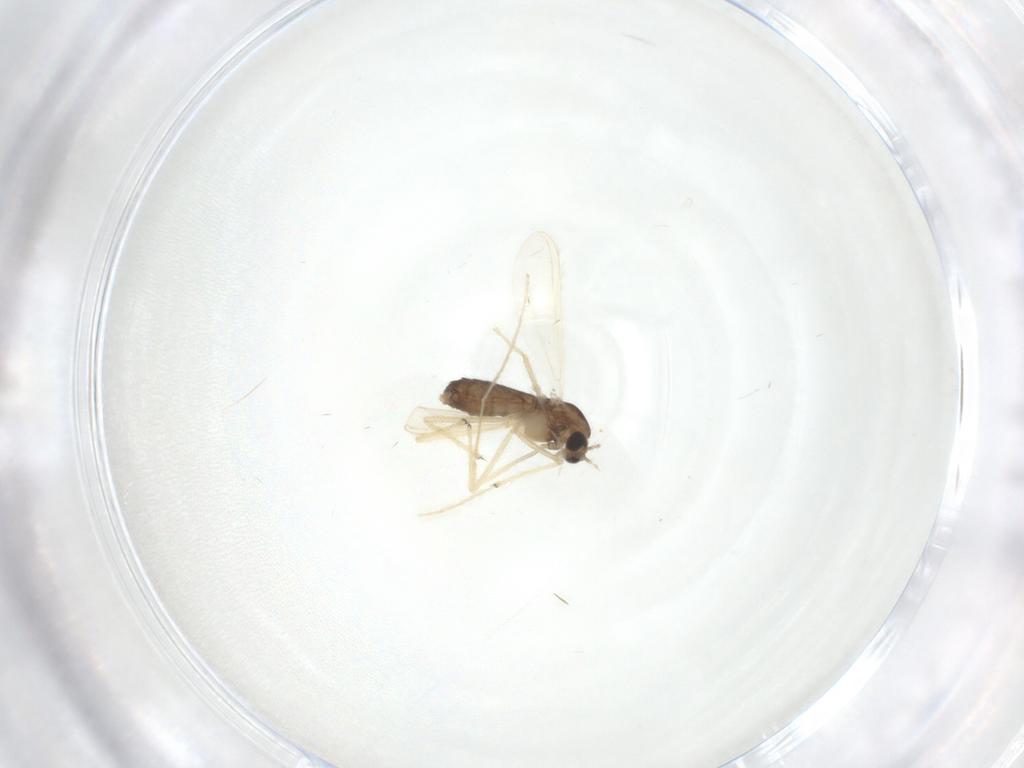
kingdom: Animalia
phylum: Arthropoda
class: Insecta
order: Diptera
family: Chironomidae
